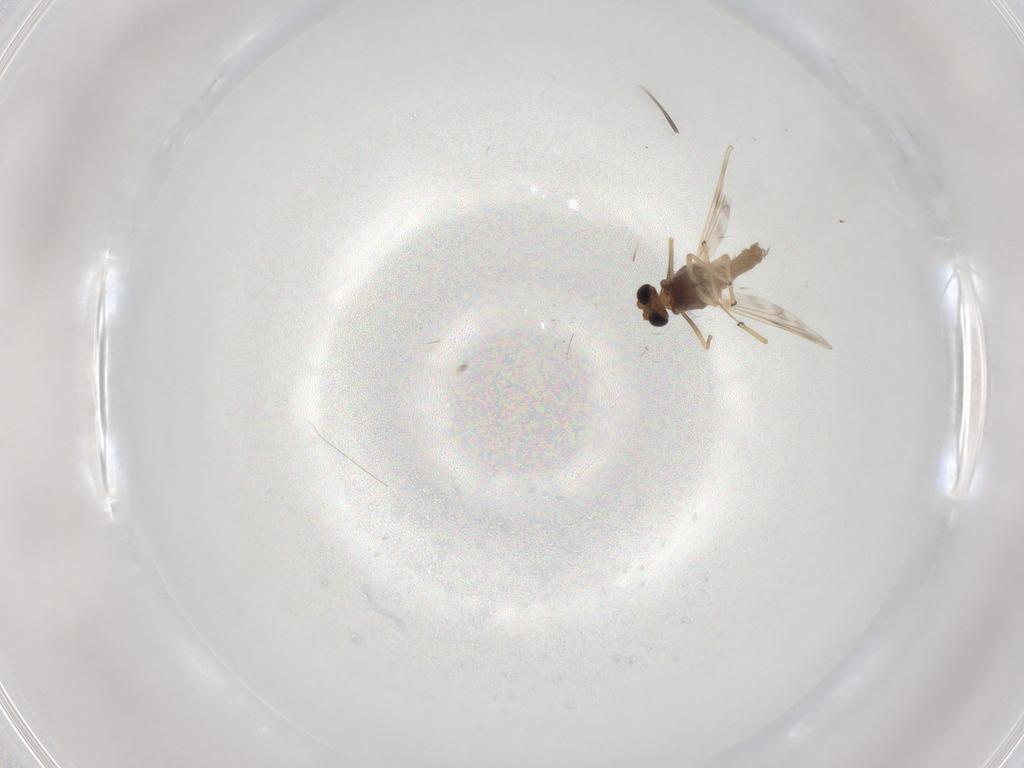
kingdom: Animalia
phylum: Arthropoda
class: Insecta
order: Diptera
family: Chironomidae
